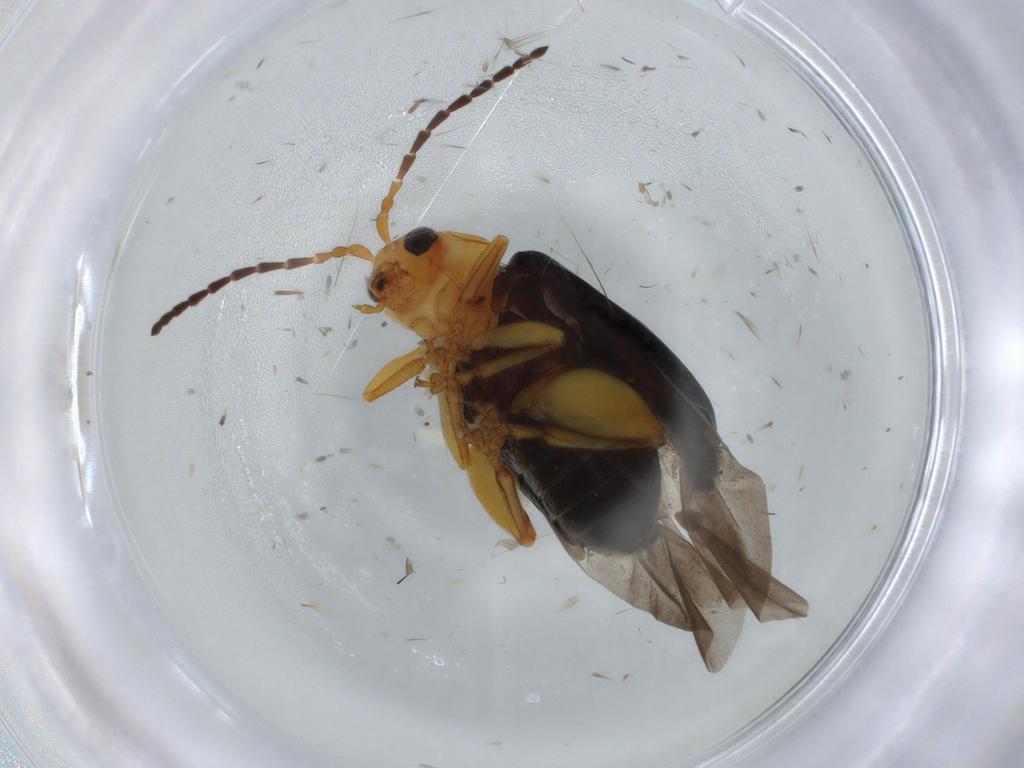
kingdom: Animalia
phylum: Arthropoda
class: Insecta
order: Coleoptera
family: Chrysomelidae
